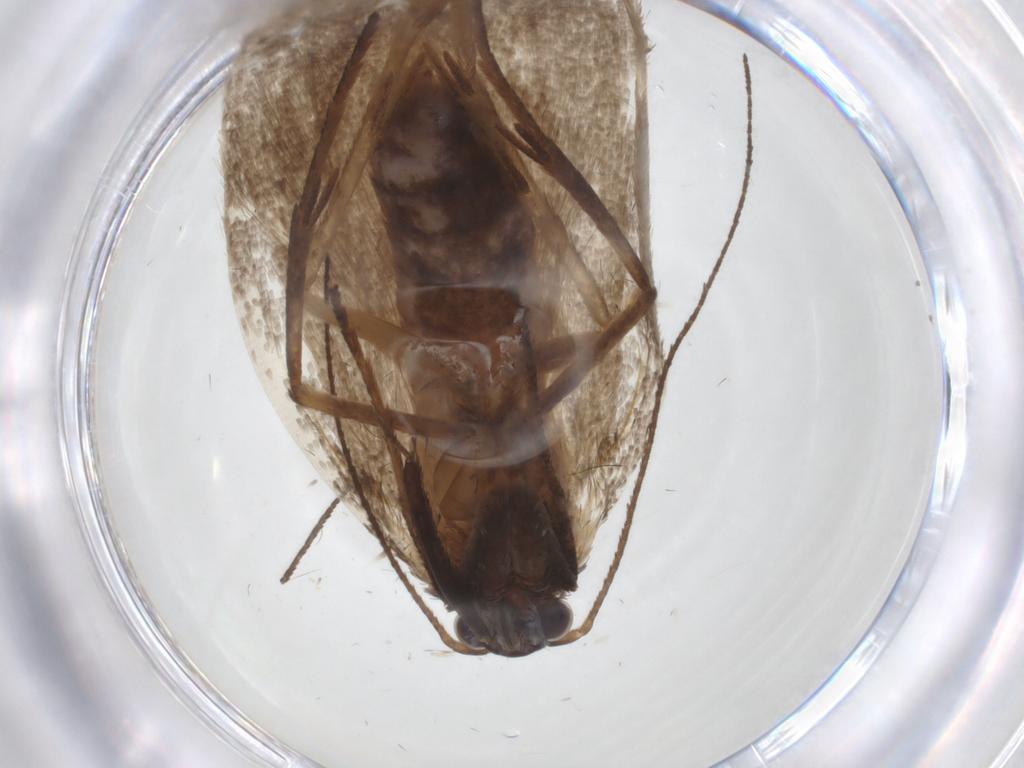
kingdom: Animalia
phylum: Arthropoda
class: Insecta
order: Lepidoptera
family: Oecophoridae
